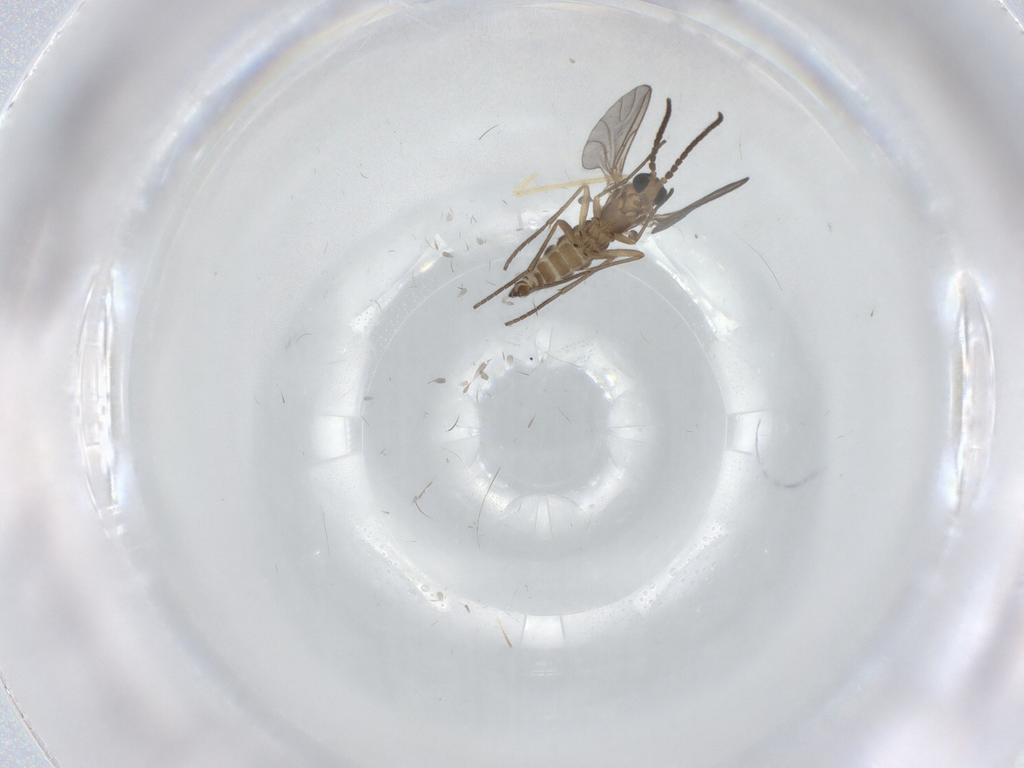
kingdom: Animalia
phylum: Arthropoda
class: Insecta
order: Diptera
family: Sciaridae
